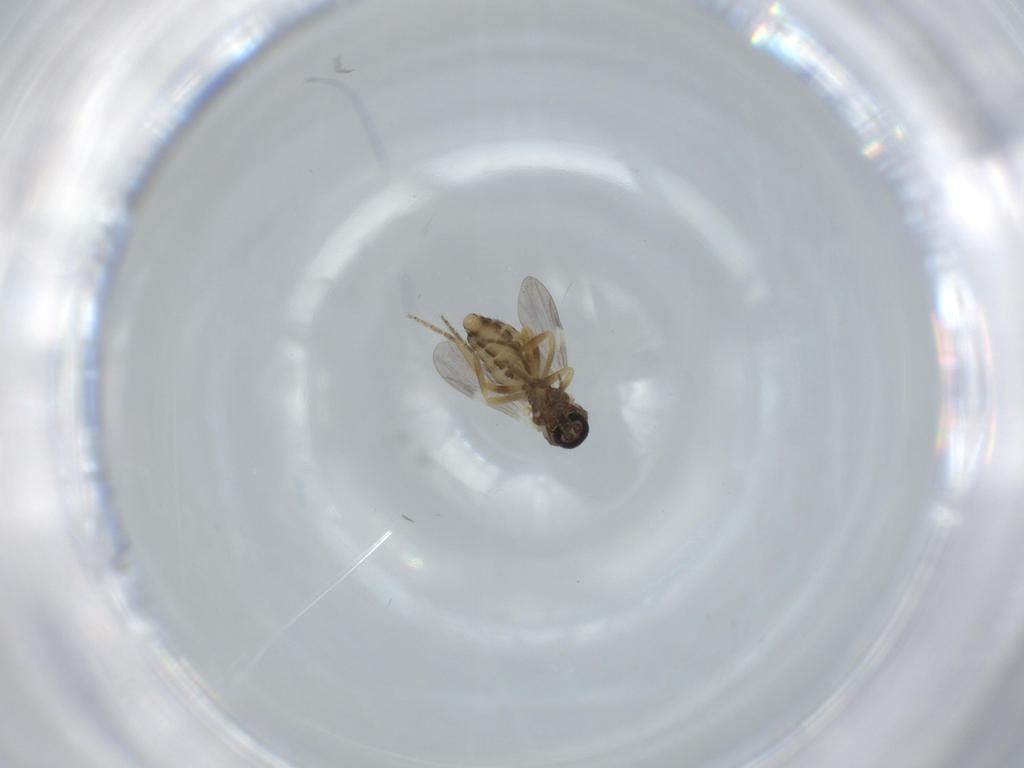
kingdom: Animalia
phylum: Arthropoda
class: Insecta
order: Diptera
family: Ceratopogonidae
